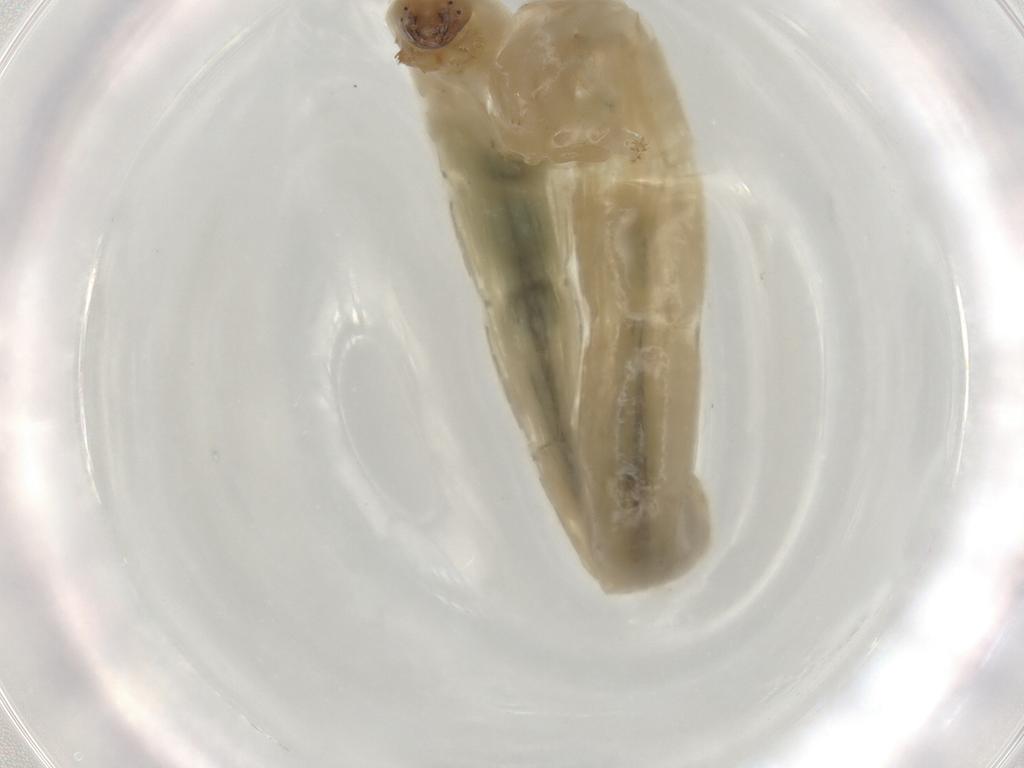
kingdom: Animalia
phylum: Arthropoda
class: Insecta
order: Diptera
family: Chironomidae
